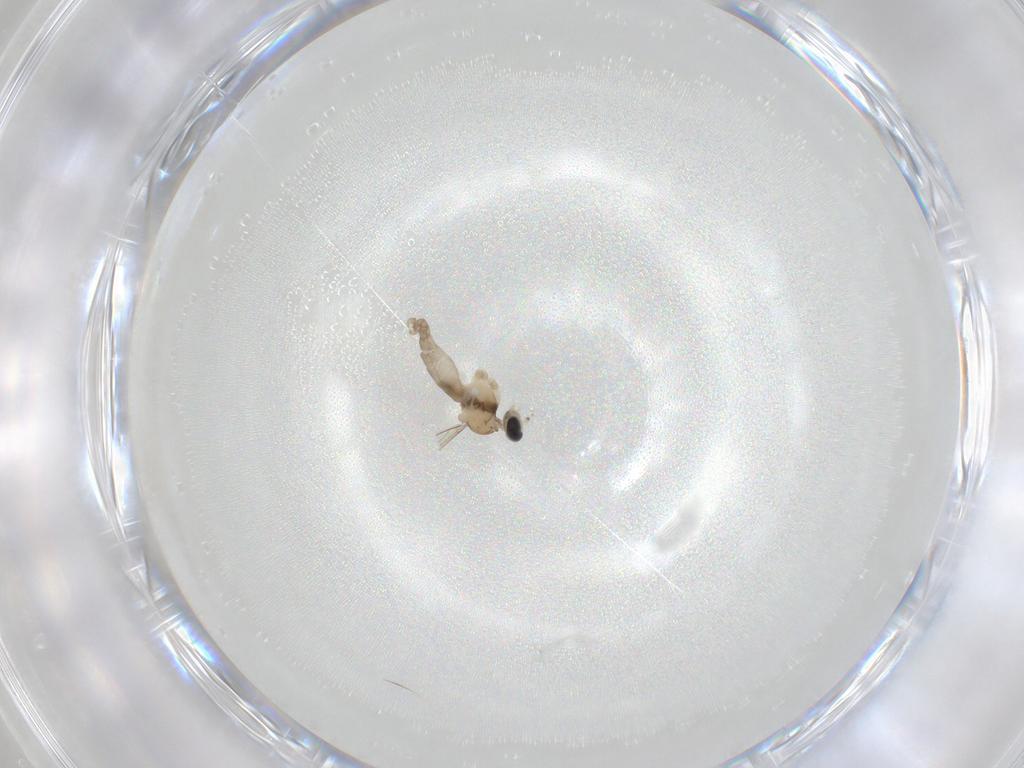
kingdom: Animalia
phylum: Arthropoda
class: Insecta
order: Diptera
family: Chironomidae
